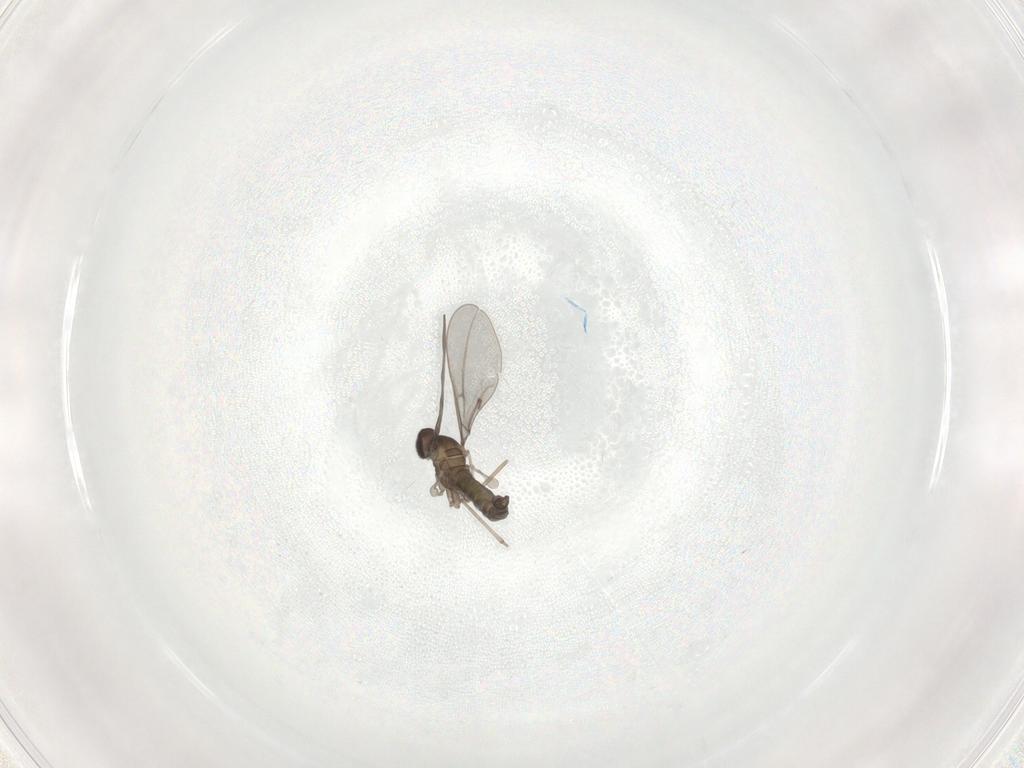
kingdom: Animalia
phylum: Arthropoda
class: Insecta
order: Diptera
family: Cecidomyiidae
